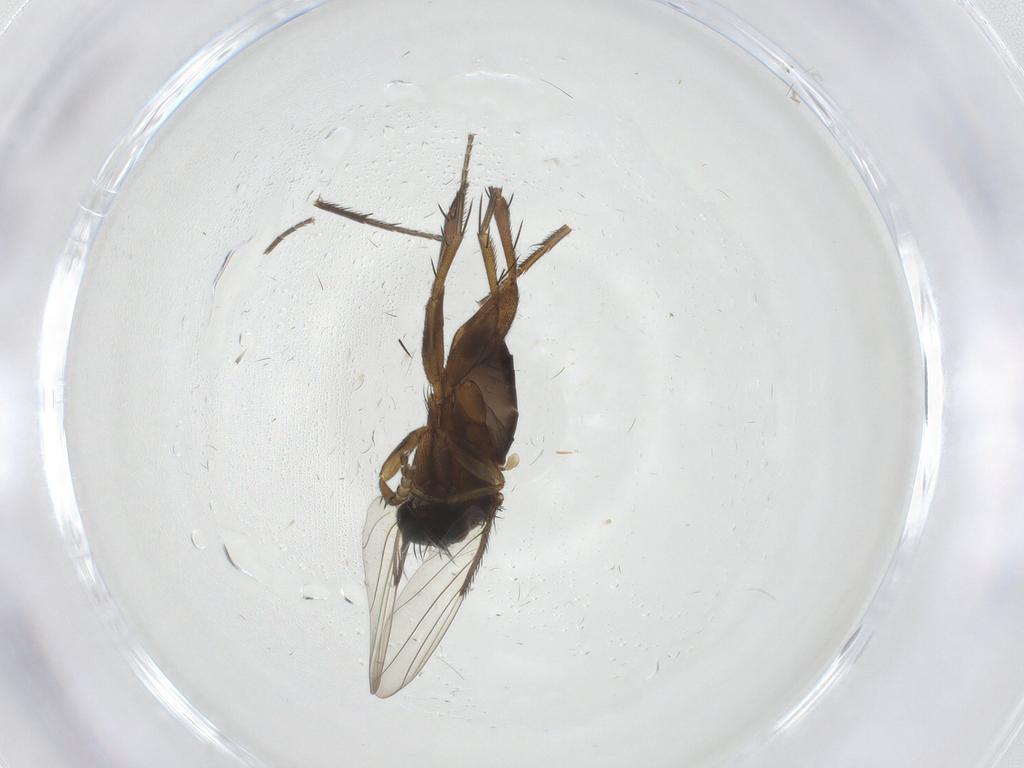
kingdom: Animalia
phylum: Arthropoda
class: Insecta
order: Diptera
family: Phoridae
